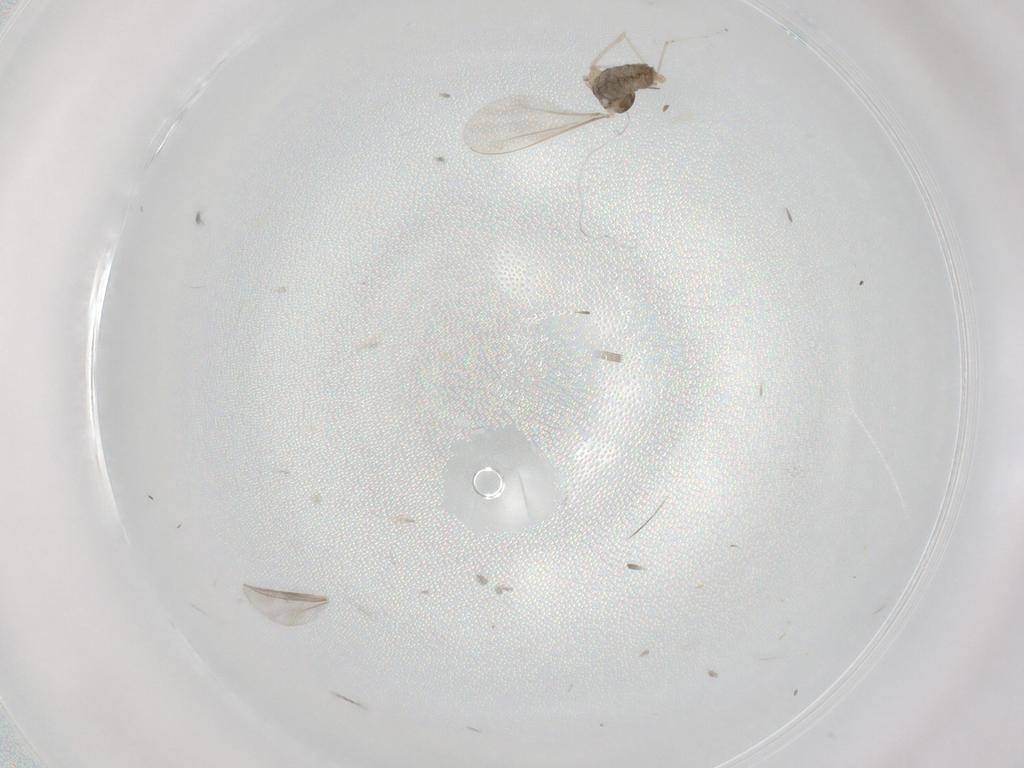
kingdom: Animalia
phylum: Arthropoda
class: Insecta
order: Diptera
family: Cecidomyiidae
